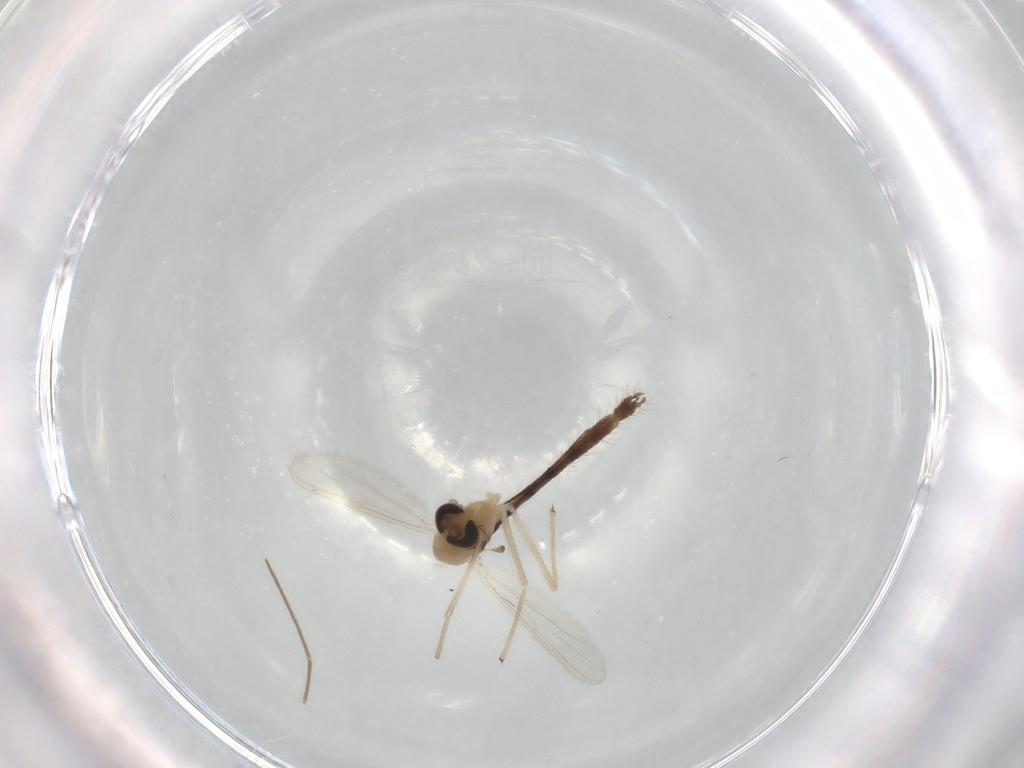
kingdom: Animalia
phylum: Arthropoda
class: Insecta
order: Diptera
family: Chironomidae
